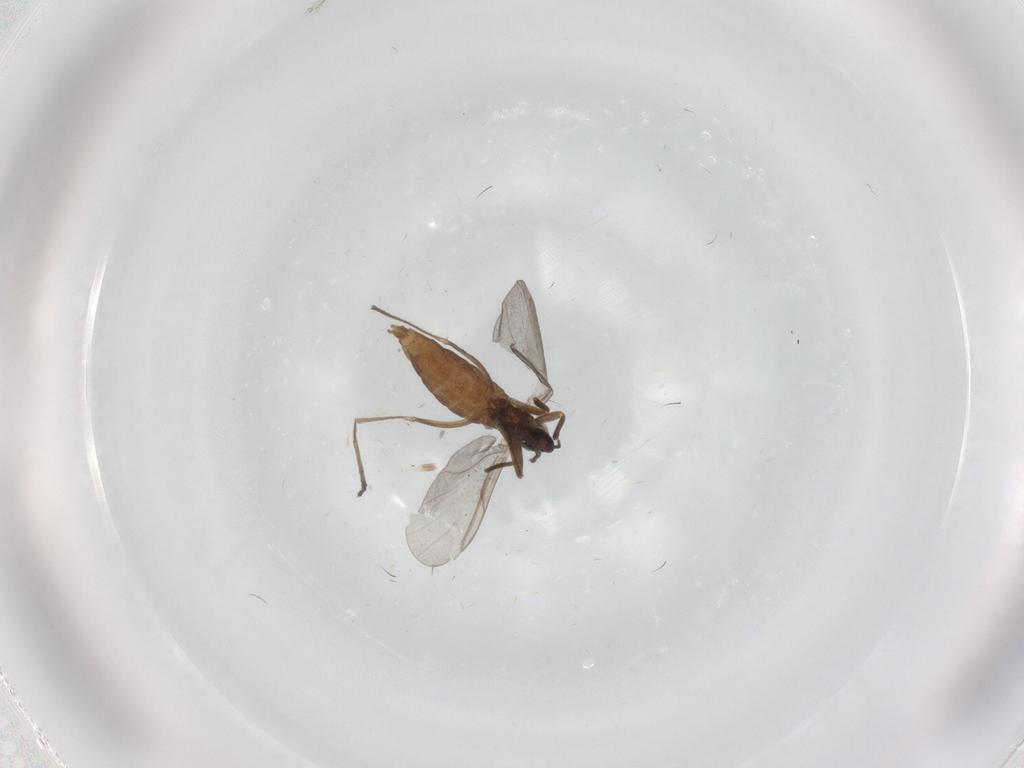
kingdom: Animalia
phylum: Arthropoda
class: Insecta
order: Diptera
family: Cecidomyiidae
